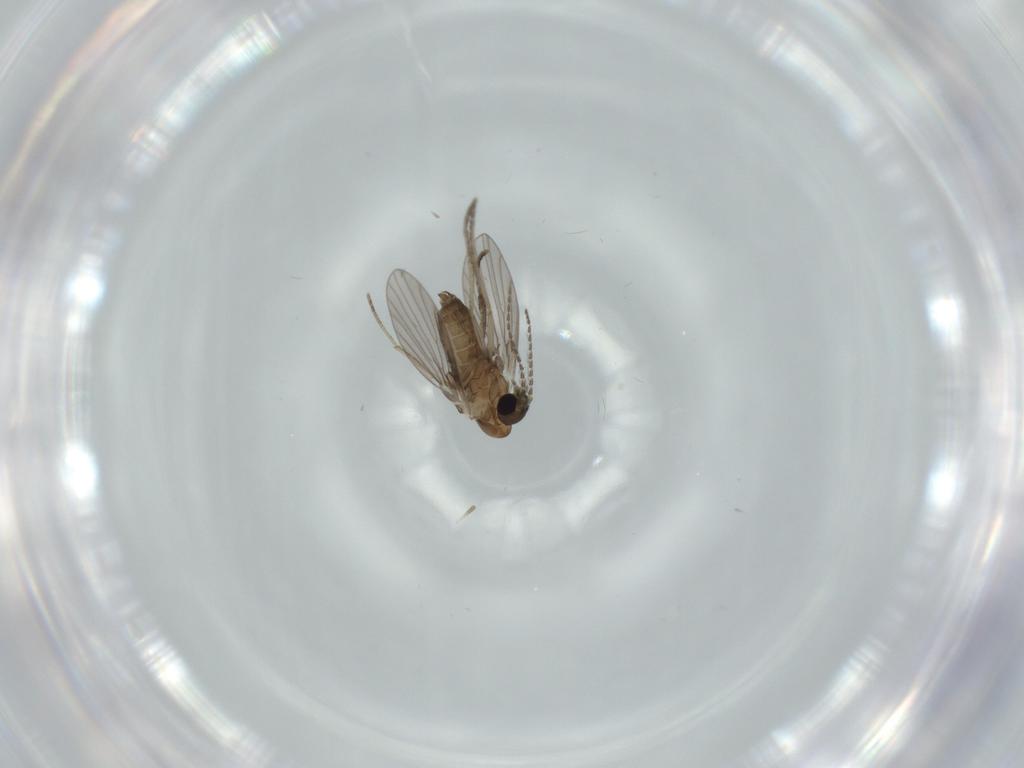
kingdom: Animalia
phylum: Arthropoda
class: Insecta
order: Diptera
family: Psychodidae
